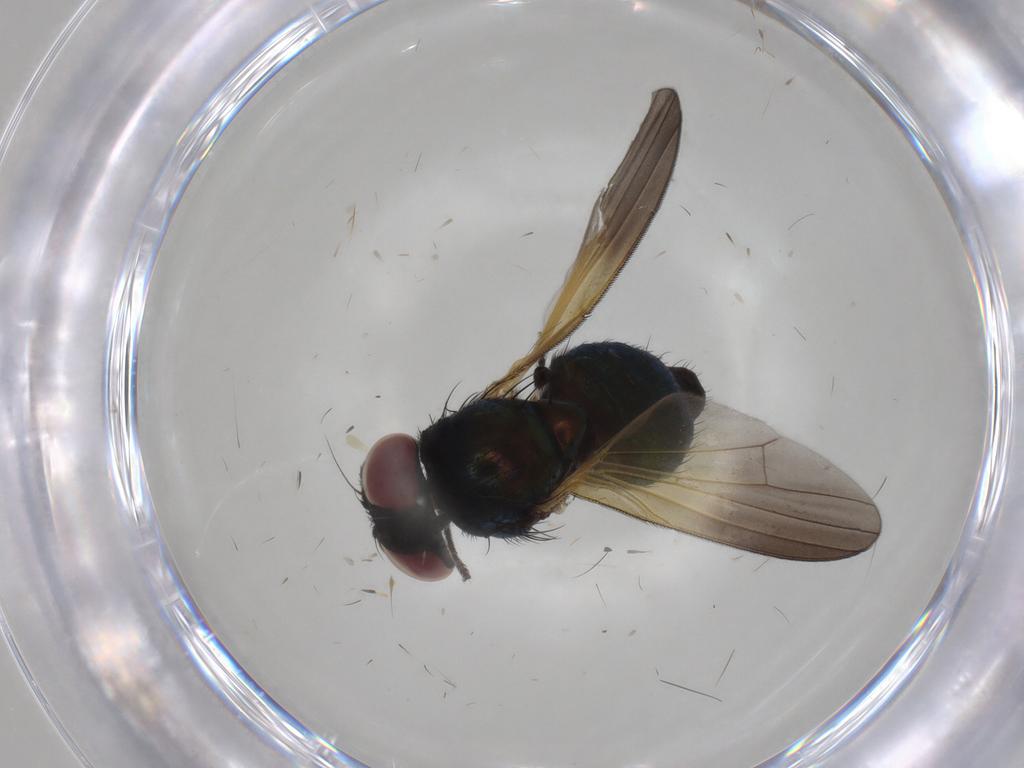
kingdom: Animalia
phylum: Arthropoda
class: Insecta
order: Diptera
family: Lonchaeidae
